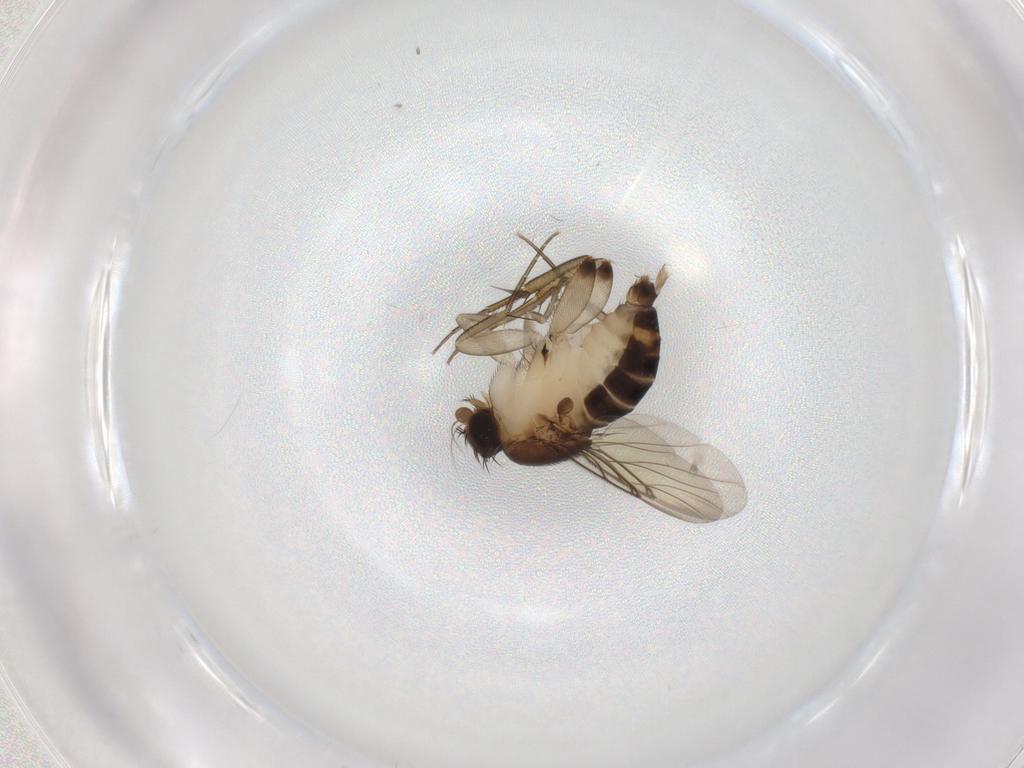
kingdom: Animalia
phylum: Arthropoda
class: Insecta
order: Diptera
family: Phoridae
